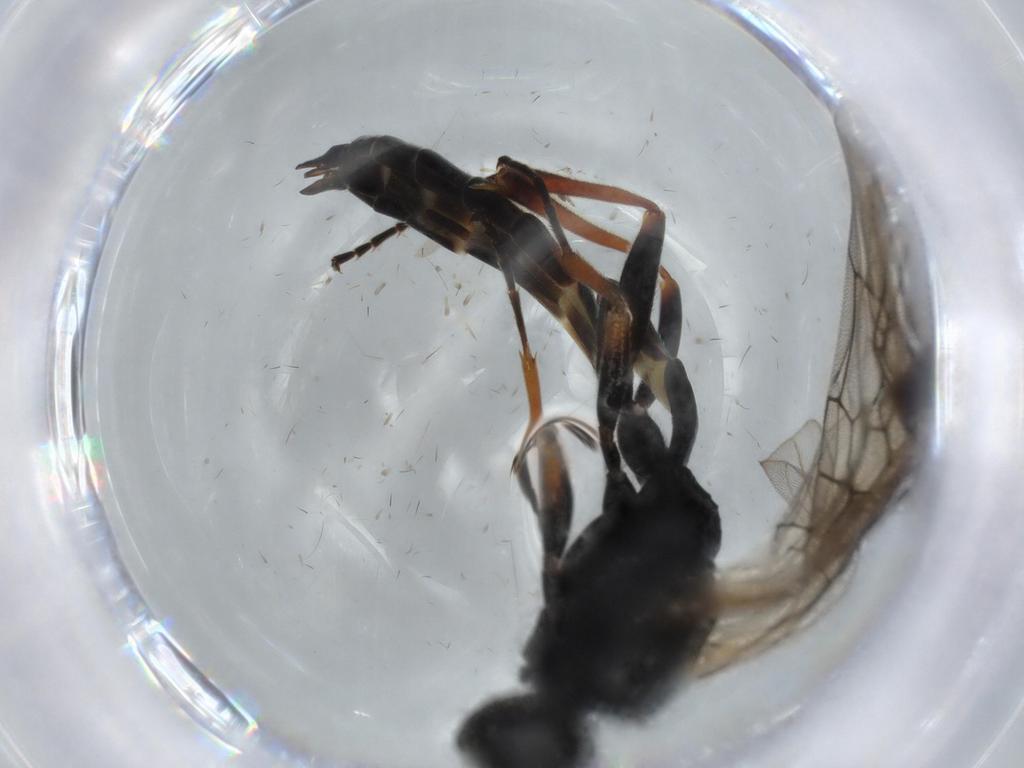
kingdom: Animalia
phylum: Arthropoda
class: Insecta
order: Hymenoptera
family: Ichneumonidae
